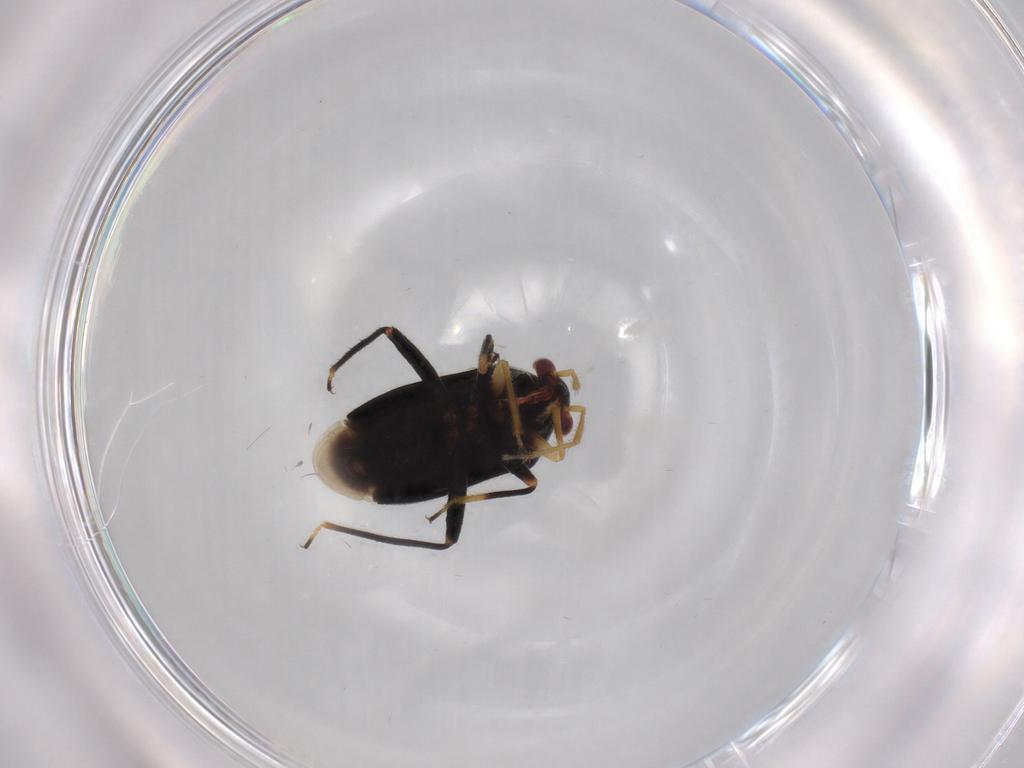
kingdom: Animalia
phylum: Arthropoda
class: Insecta
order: Hemiptera
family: Miridae
